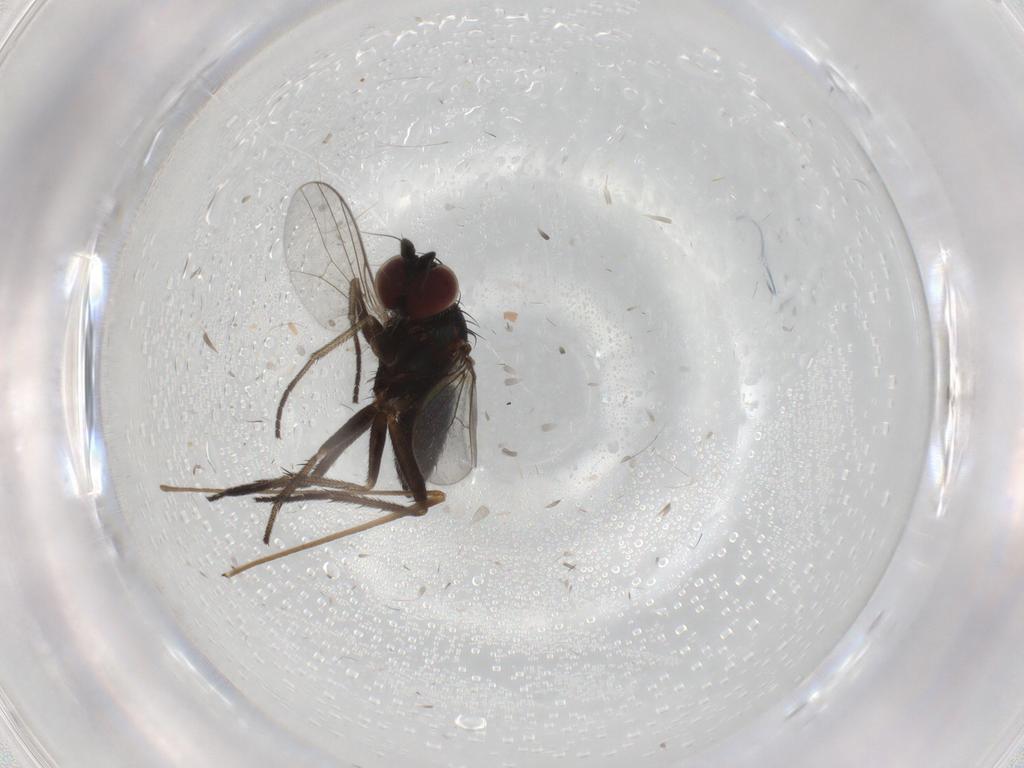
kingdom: Animalia
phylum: Arthropoda
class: Insecta
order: Diptera
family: Dolichopodidae
